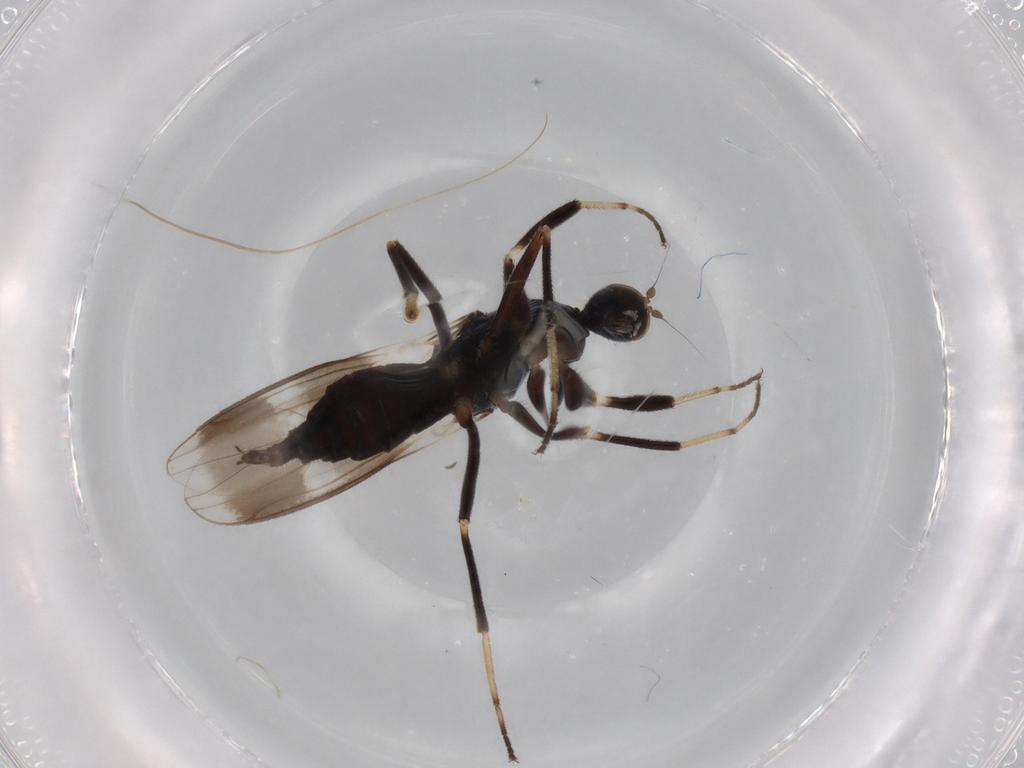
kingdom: Animalia
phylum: Arthropoda
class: Insecta
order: Diptera
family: Drosophilidae
